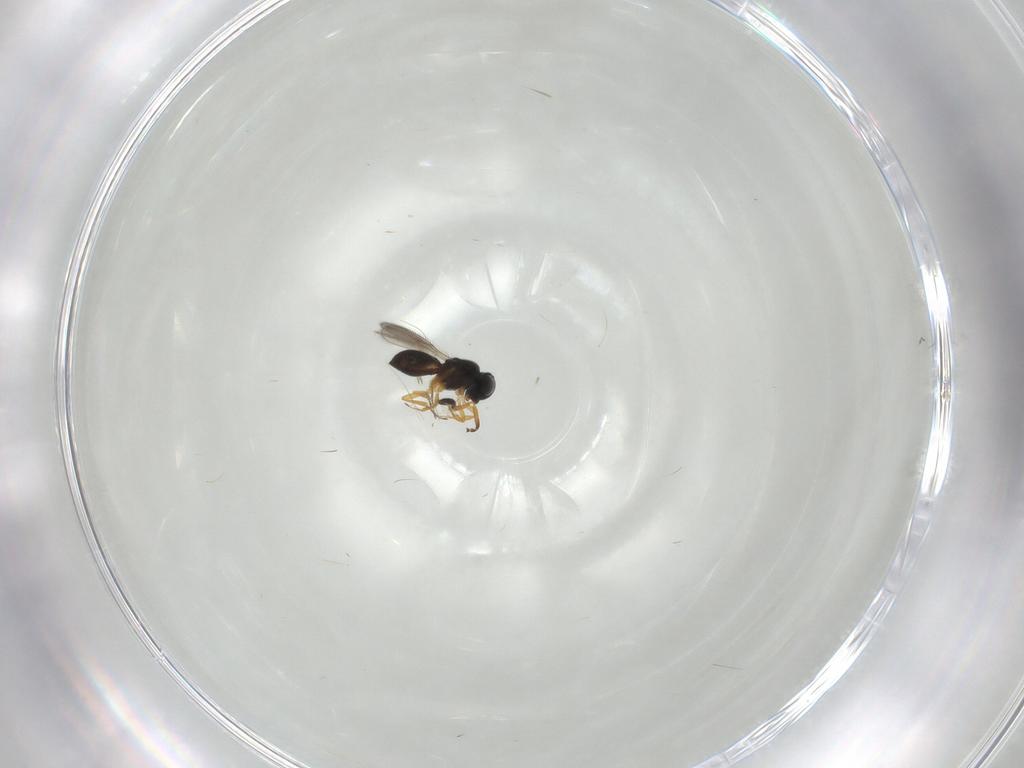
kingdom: Animalia
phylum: Arthropoda
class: Insecta
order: Hymenoptera
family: Scelionidae
